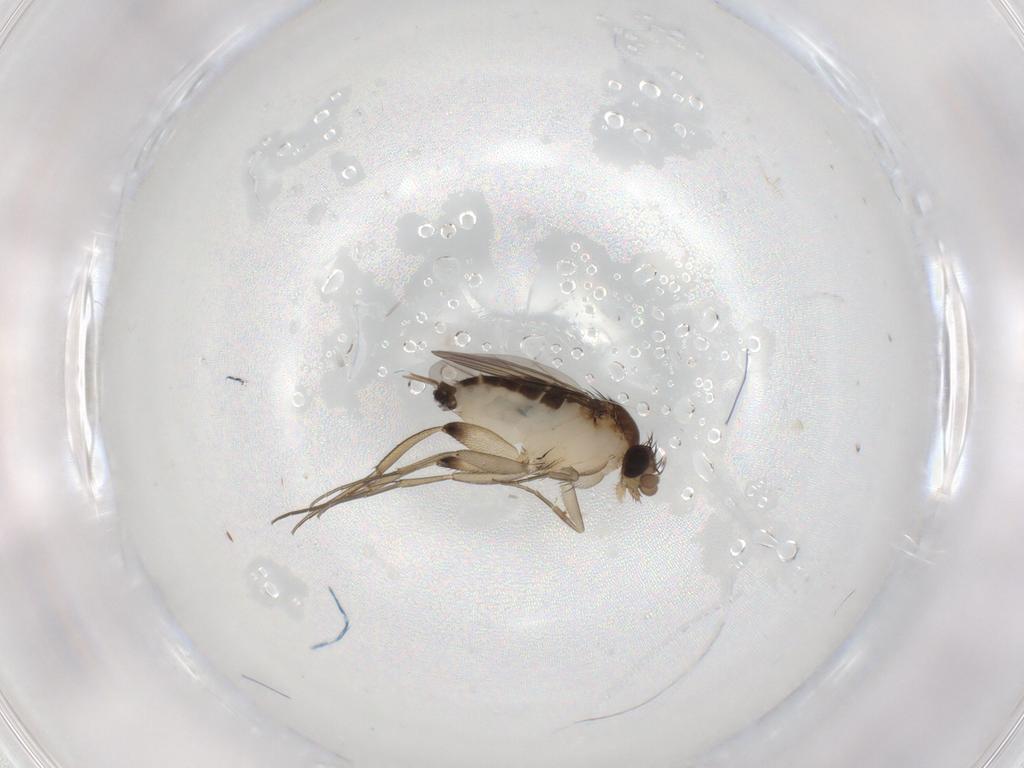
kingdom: Animalia
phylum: Arthropoda
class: Insecta
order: Diptera
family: Phoridae
